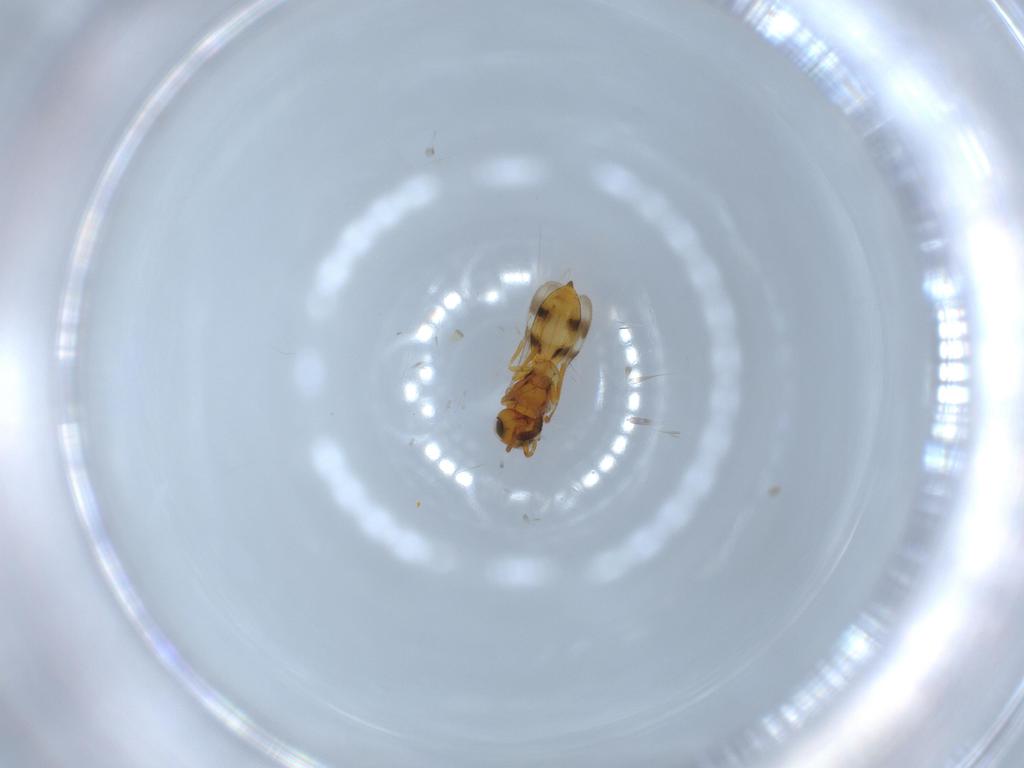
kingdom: Animalia
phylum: Arthropoda
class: Insecta
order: Hymenoptera
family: Scelionidae
